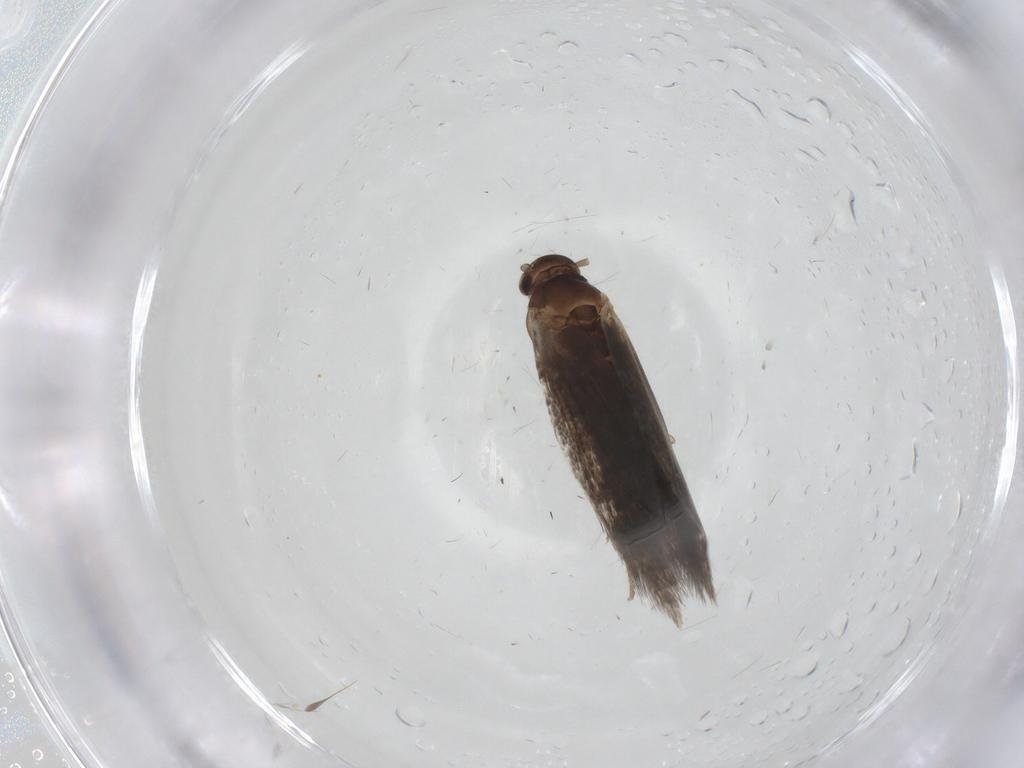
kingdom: Animalia
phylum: Arthropoda
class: Insecta
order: Lepidoptera
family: Elachistidae
